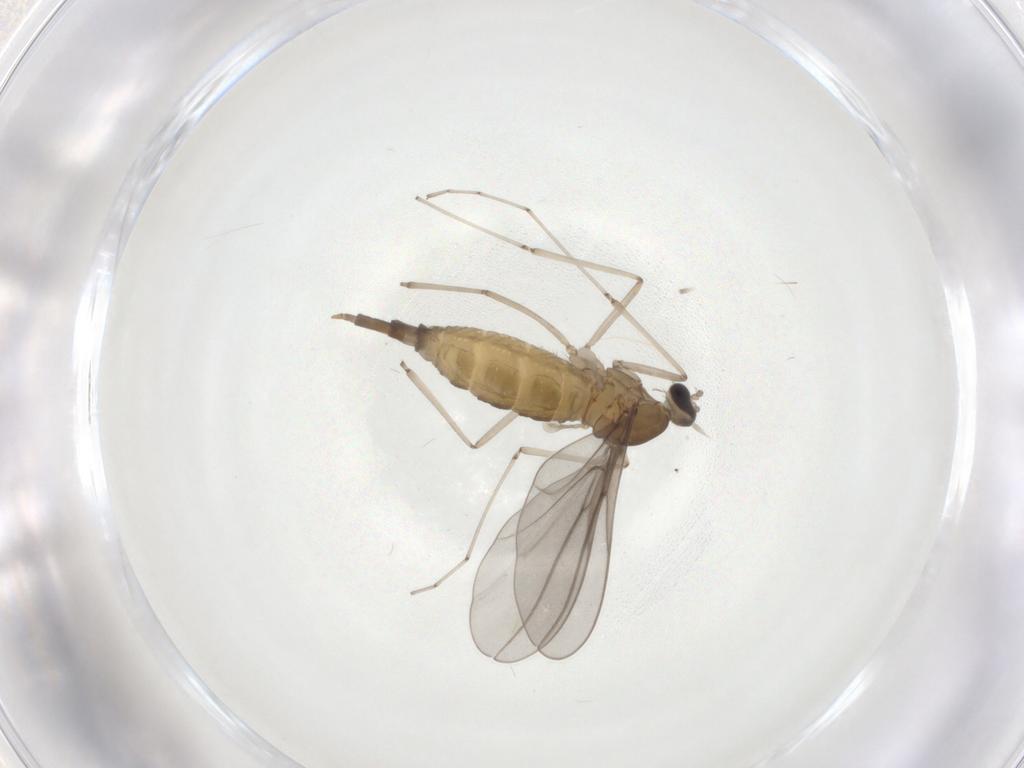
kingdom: Animalia
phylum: Arthropoda
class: Insecta
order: Diptera
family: Cecidomyiidae
